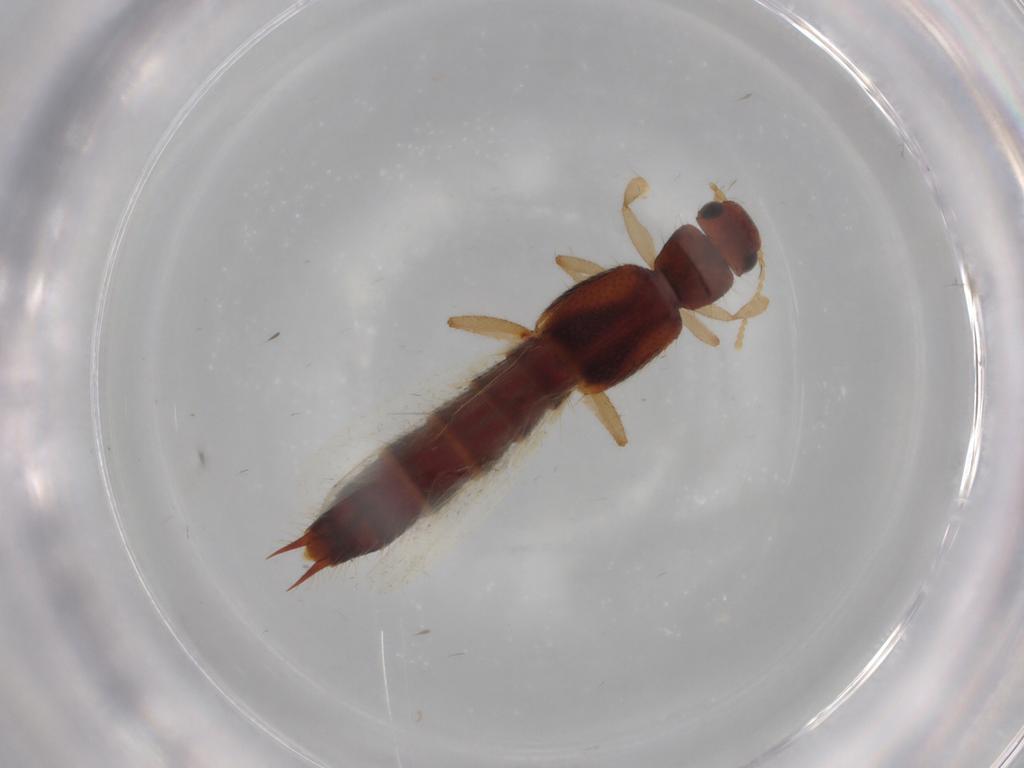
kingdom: Animalia
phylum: Arthropoda
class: Insecta
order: Coleoptera
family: Staphylinidae
